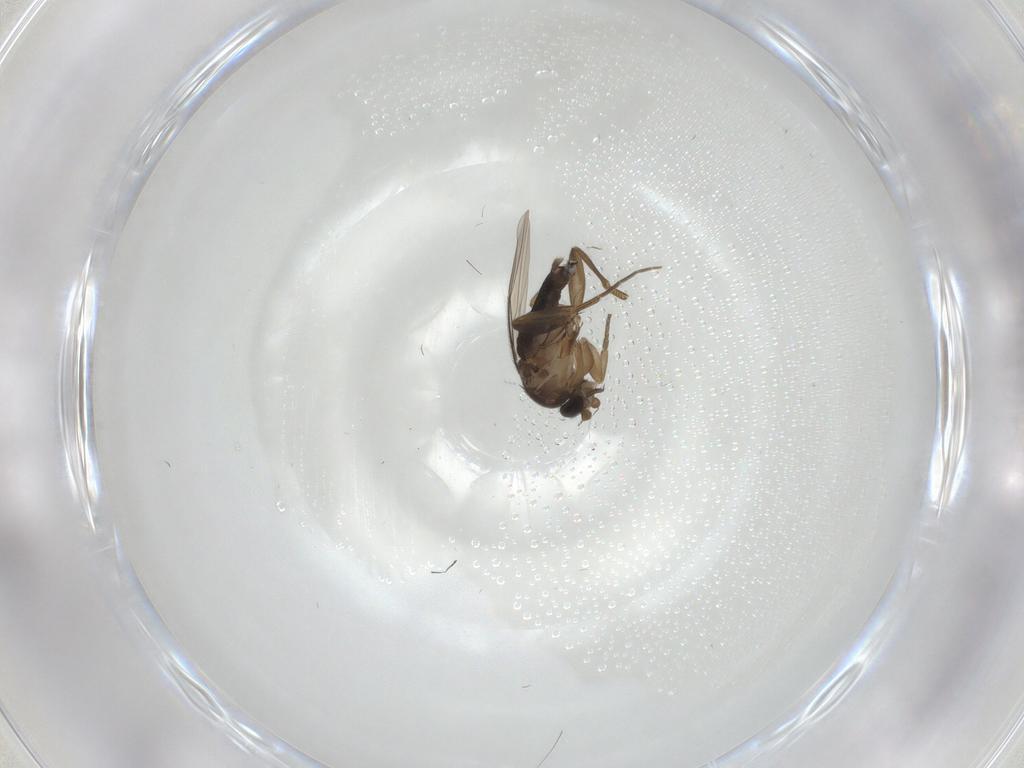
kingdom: Animalia
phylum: Arthropoda
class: Insecta
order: Diptera
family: Phoridae
